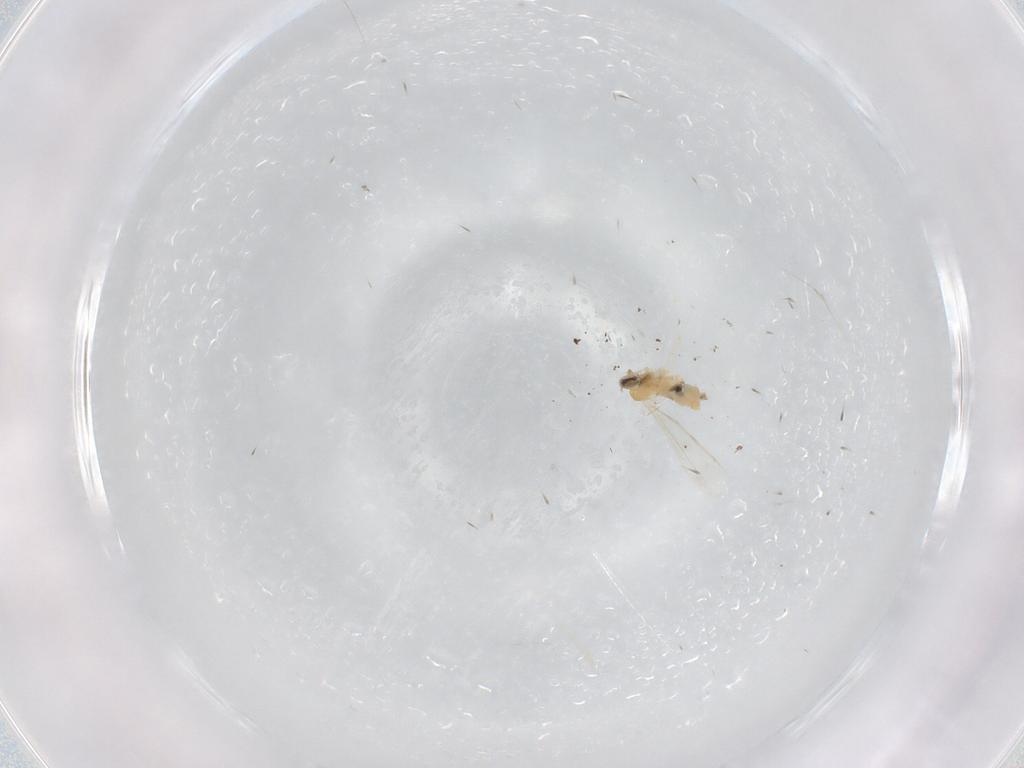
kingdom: Animalia
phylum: Arthropoda
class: Insecta
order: Diptera
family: Cecidomyiidae
